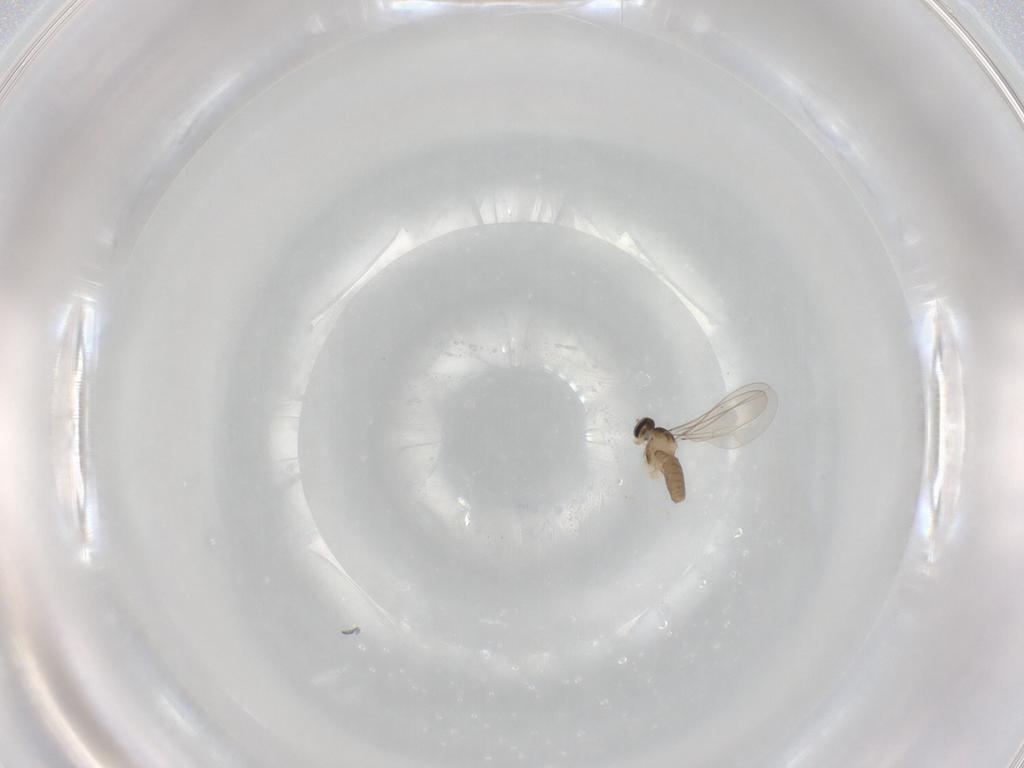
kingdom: Animalia
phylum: Arthropoda
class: Insecta
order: Diptera
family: Cecidomyiidae
